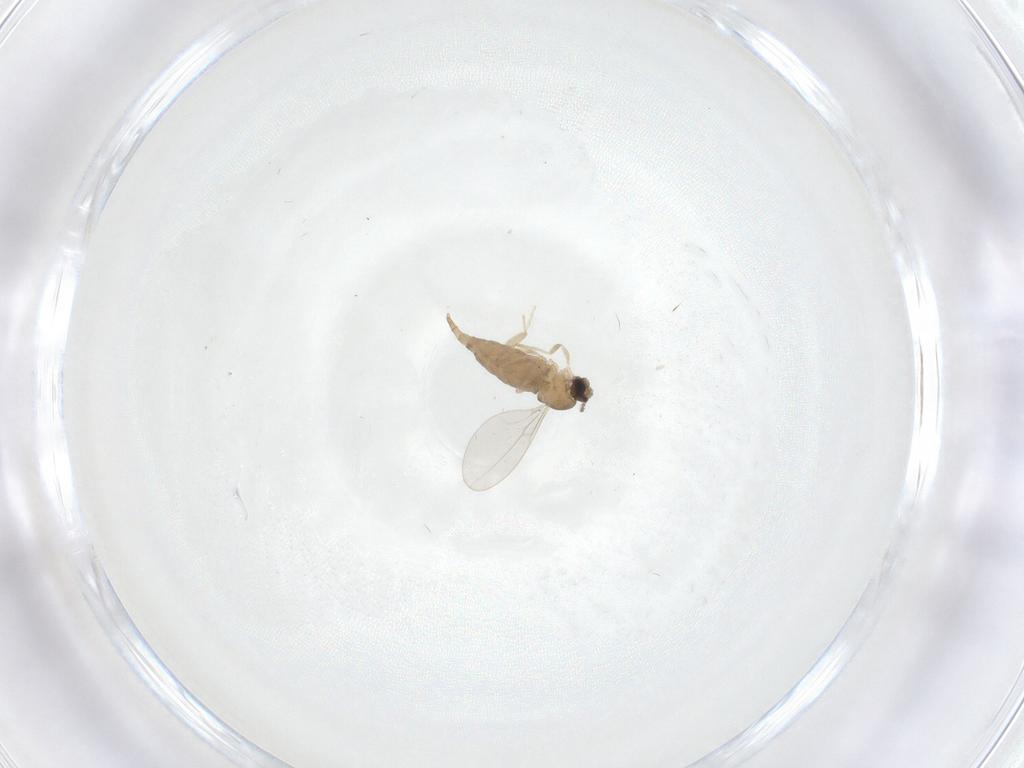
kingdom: Animalia
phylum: Arthropoda
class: Insecta
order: Diptera
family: Cecidomyiidae
